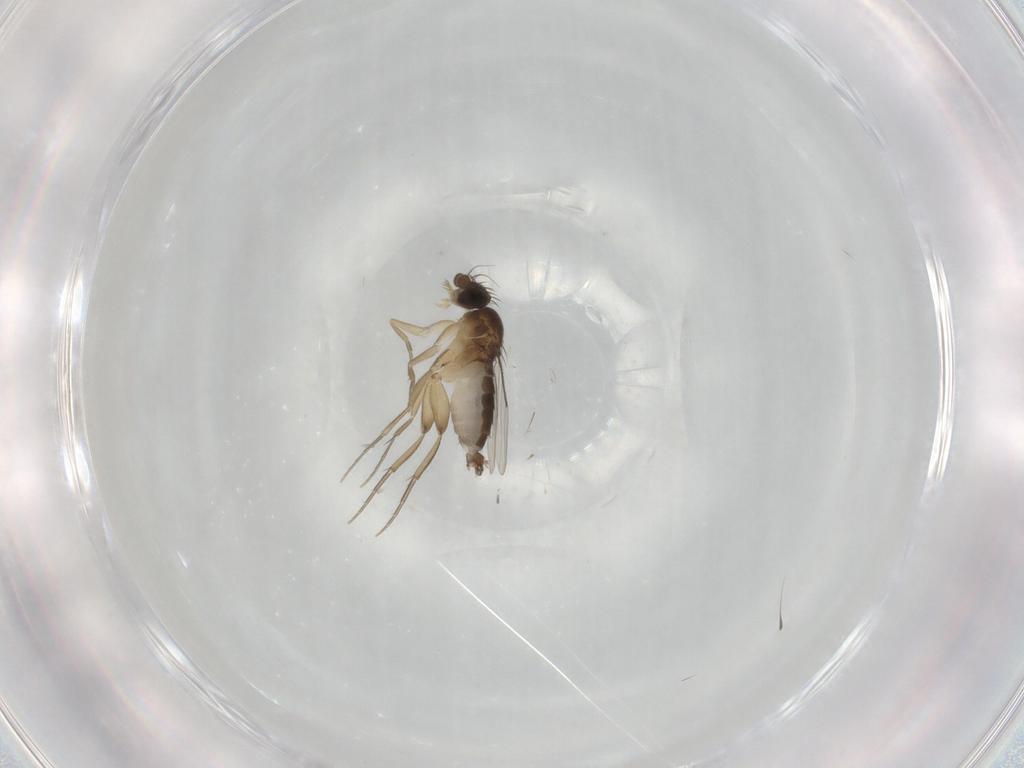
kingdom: Animalia
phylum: Arthropoda
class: Insecta
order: Diptera
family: Phoridae
